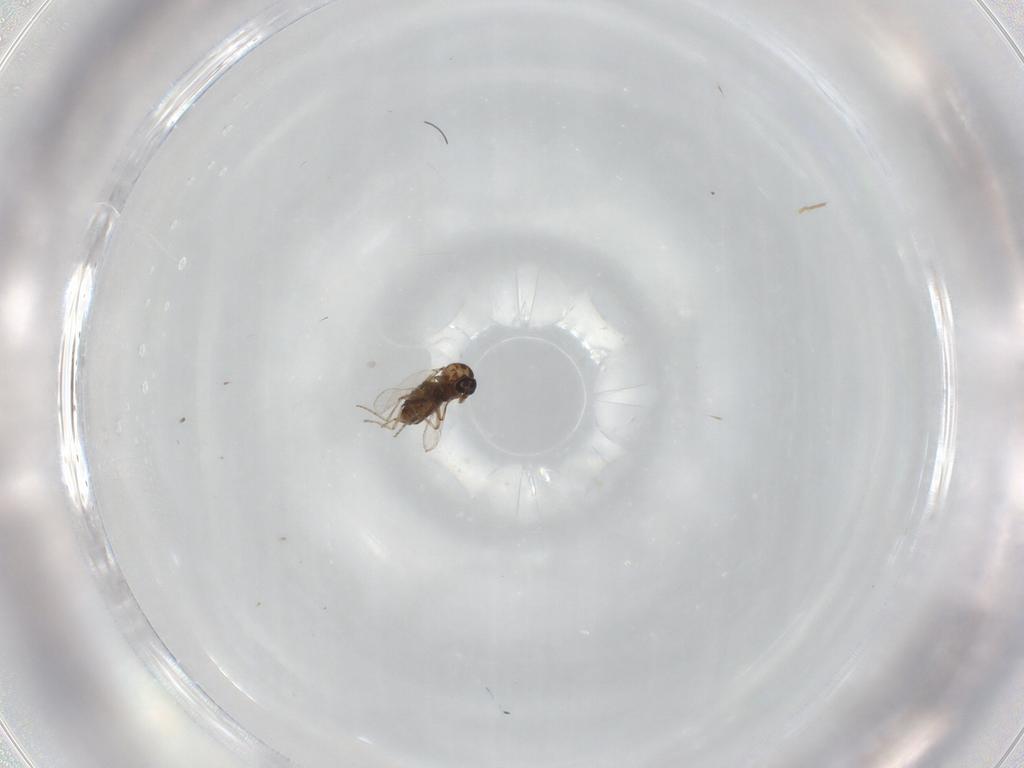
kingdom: Animalia
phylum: Arthropoda
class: Insecta
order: Diptera
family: Ceratopogonidae
